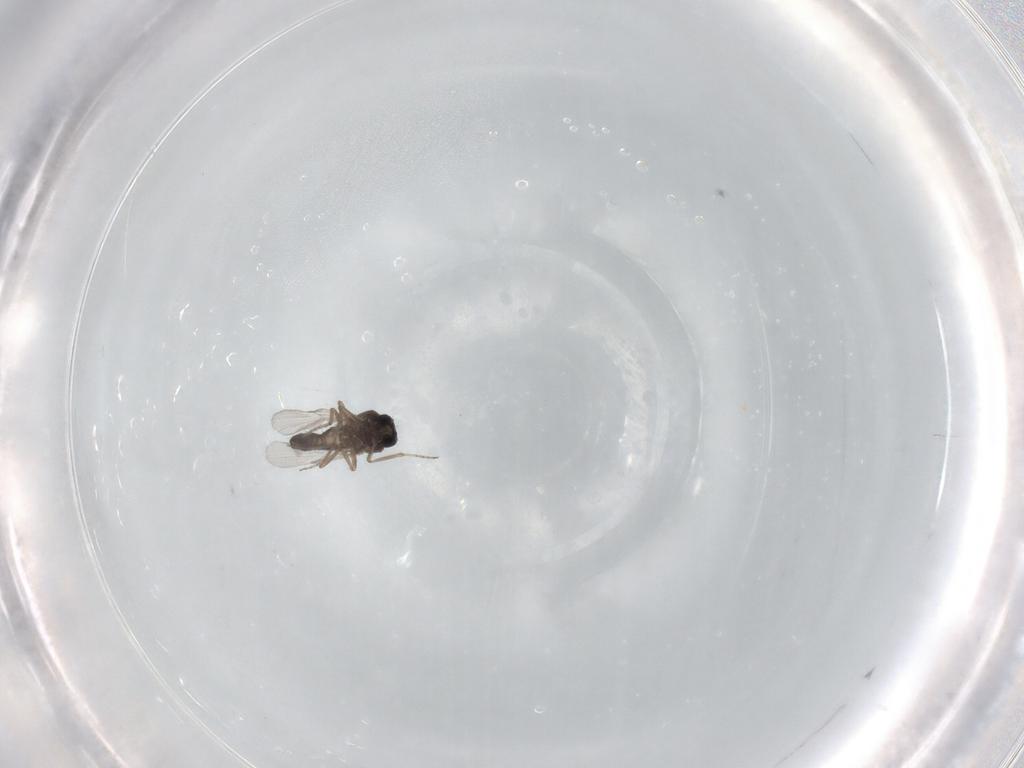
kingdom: Animalia
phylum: Arthropoda
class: Insecta
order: Diptera
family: Ceratopogonidae
